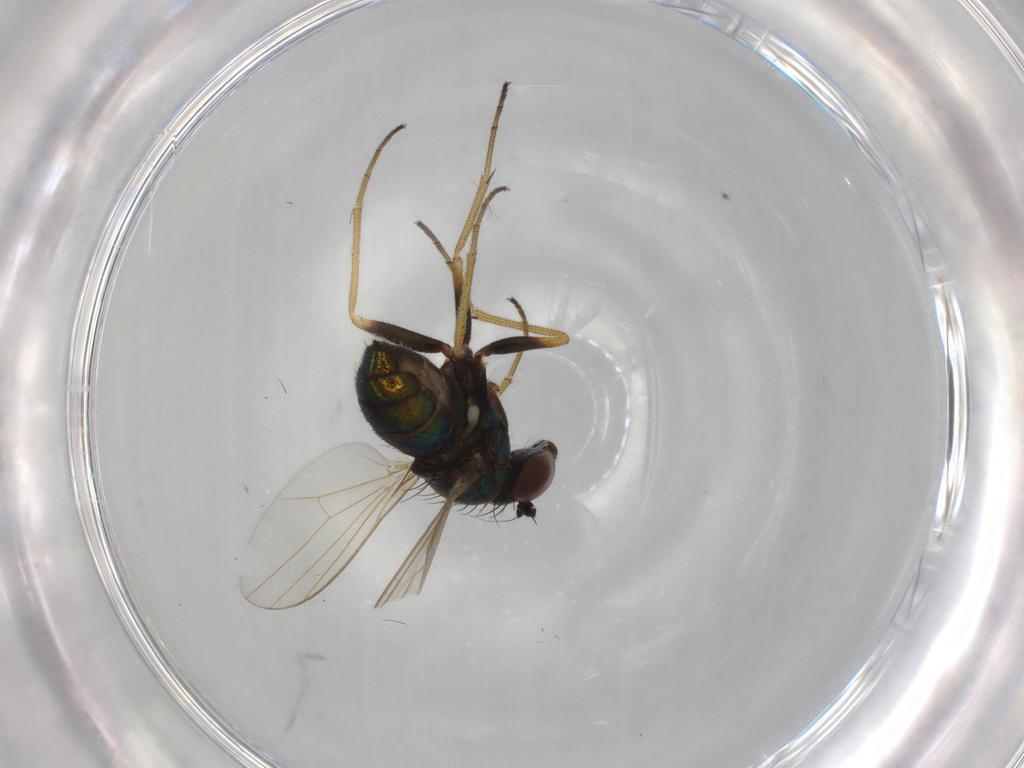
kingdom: Animalia
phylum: Arthropoda
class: Insecta
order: Diptera
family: Dolichopodidae
